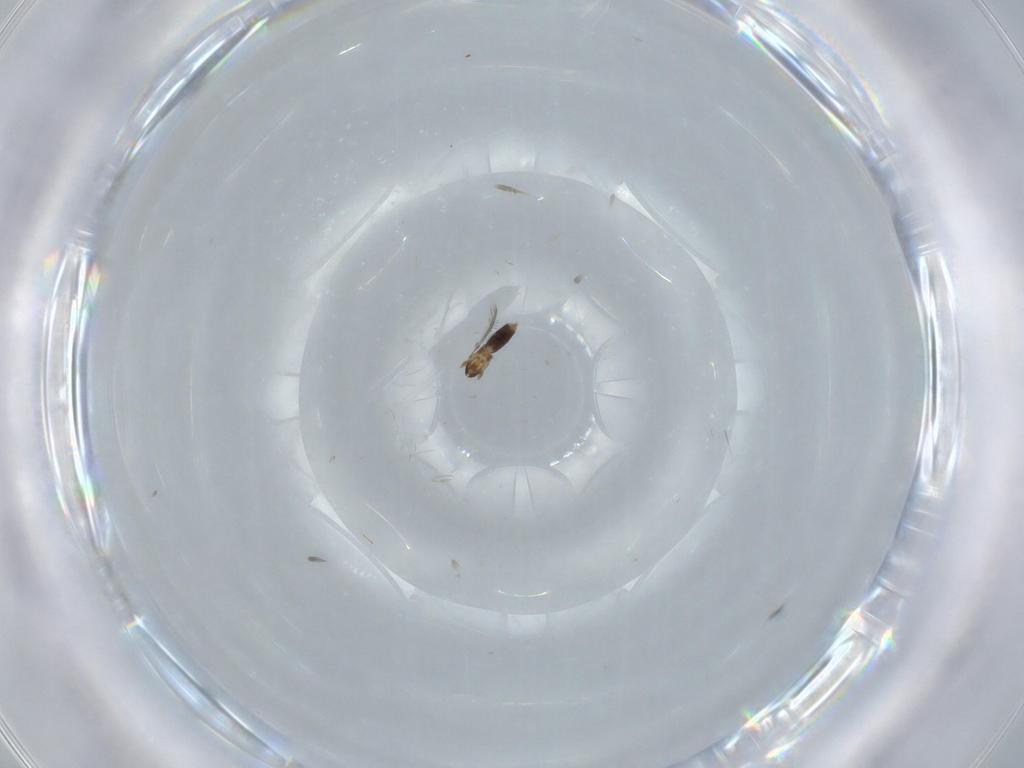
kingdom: Animalia
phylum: Arthropoda
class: Insecta
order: Hymenoptera
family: Mymaridae
